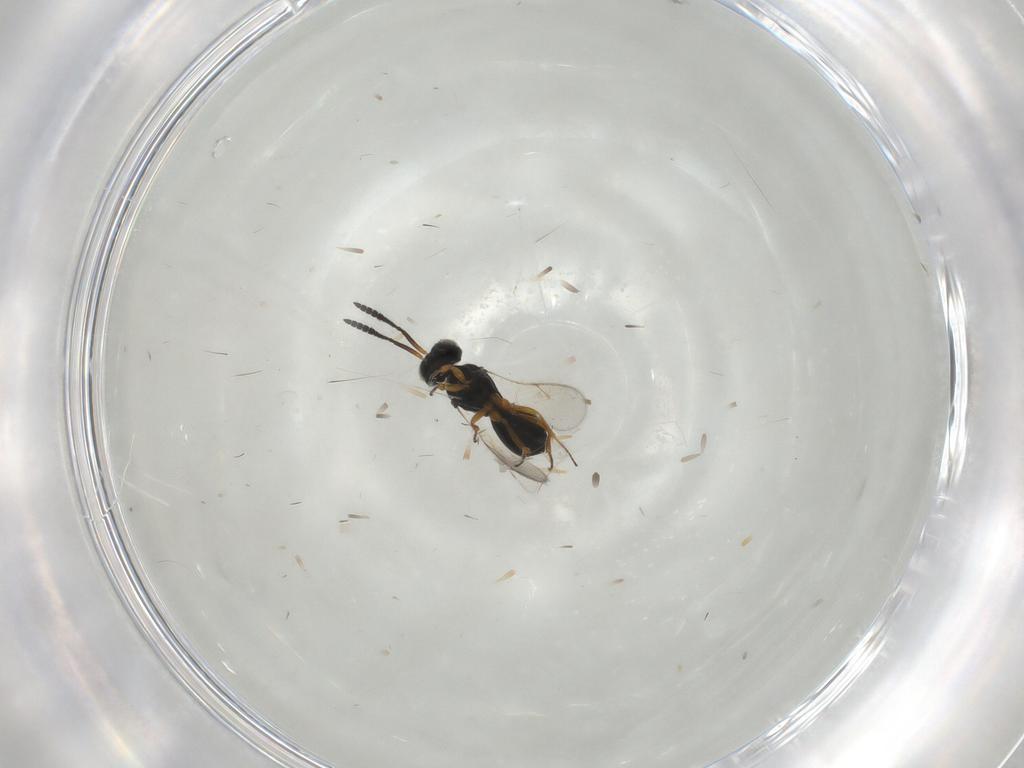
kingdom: Animalia
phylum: Arthropoda
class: Insecta
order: Hymenoptera
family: Scelionidae
